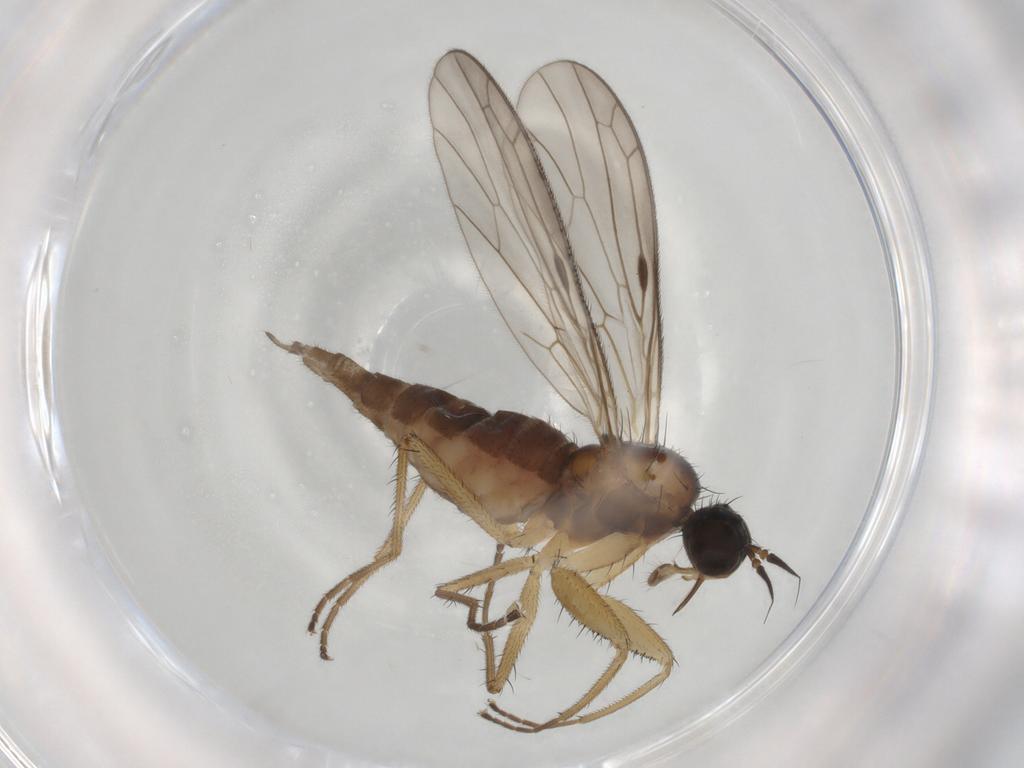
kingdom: Animalia
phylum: Arthropoda
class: Insecta
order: Diptera
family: Empididae
